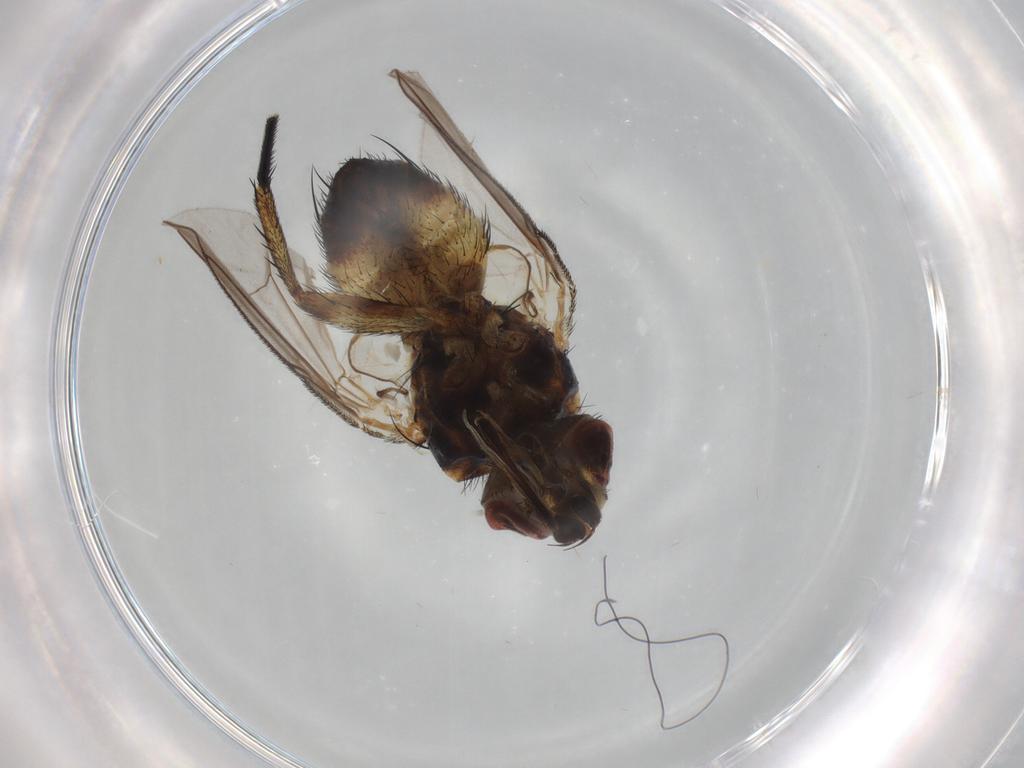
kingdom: Animalia
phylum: Arthropoda
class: Insecta
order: Diptera
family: Tachinidae
